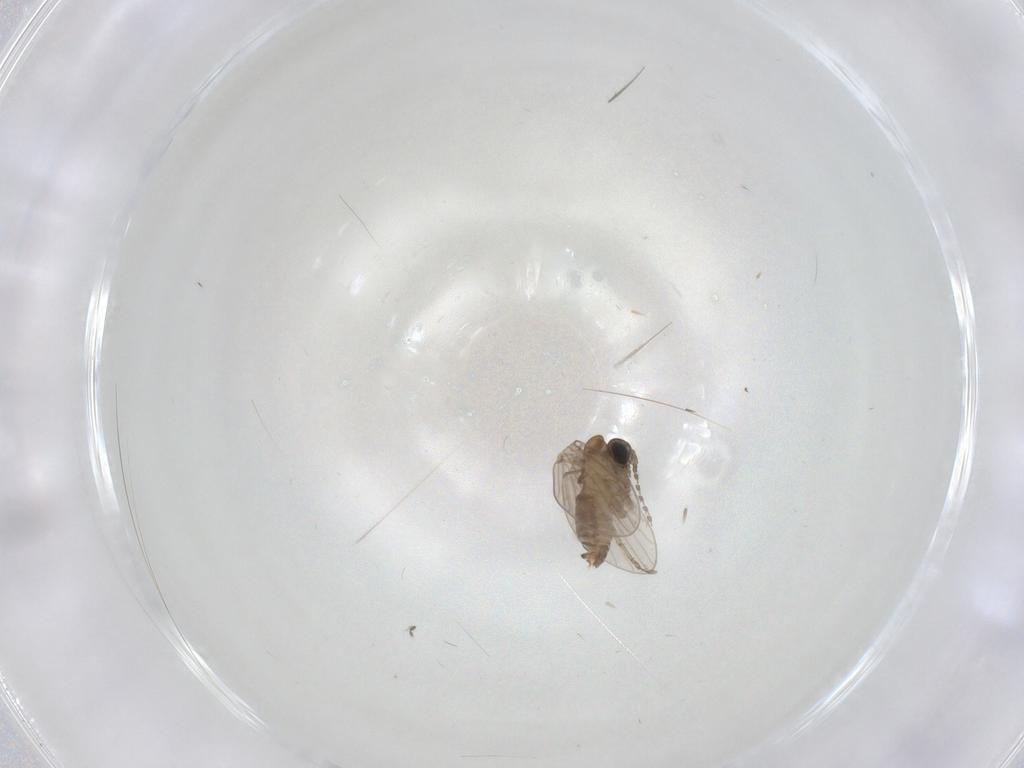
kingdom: Animalia
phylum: Arthropoda
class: Insecta
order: Diptera
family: Psychodidae
